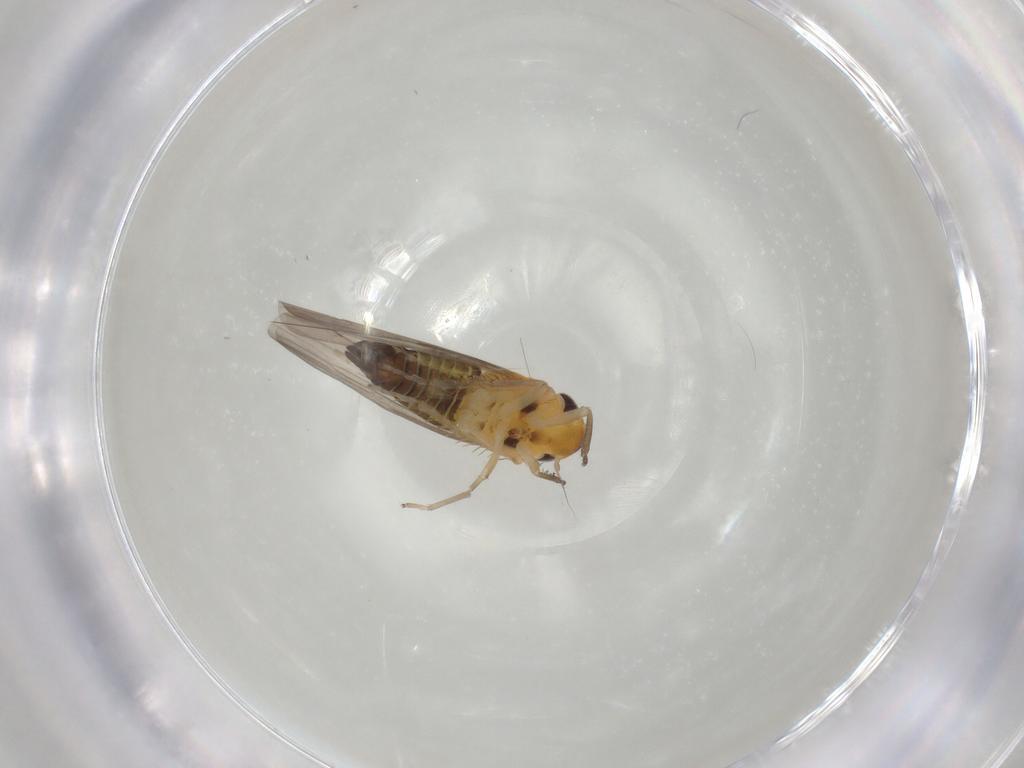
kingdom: Animalia
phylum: Arthropoda
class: Insecta
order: Hemiptera
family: Cicadellidae
